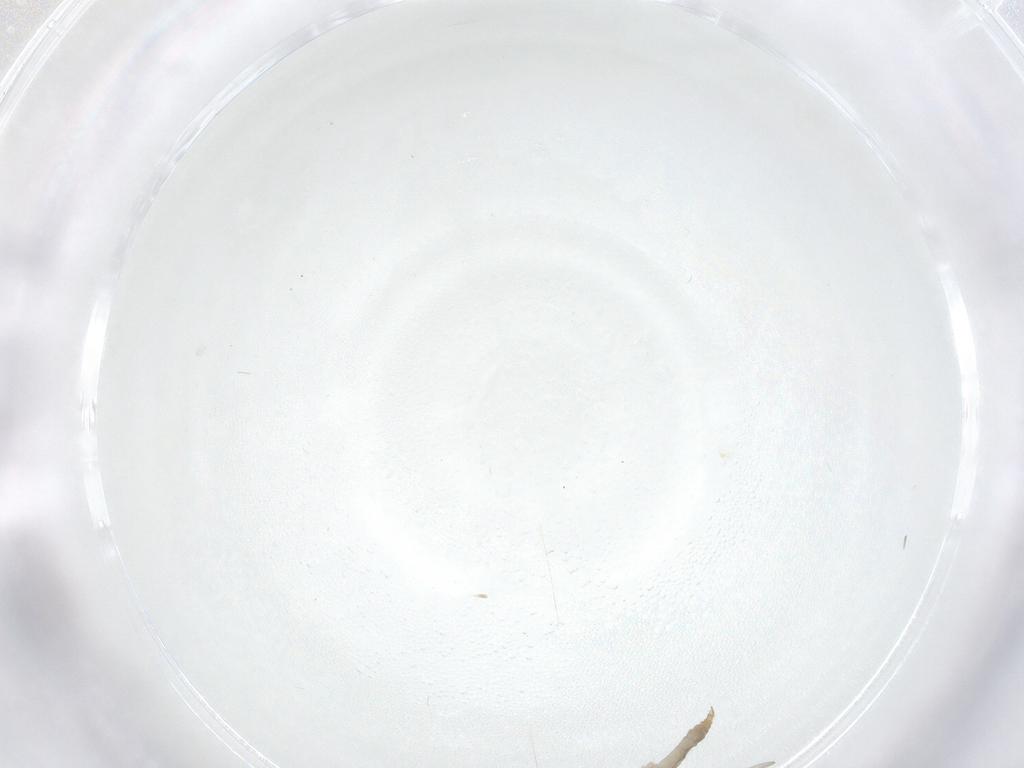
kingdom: Animalia
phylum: Arthropoda
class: Insecta
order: Diptera
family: Cecidomyiidae
